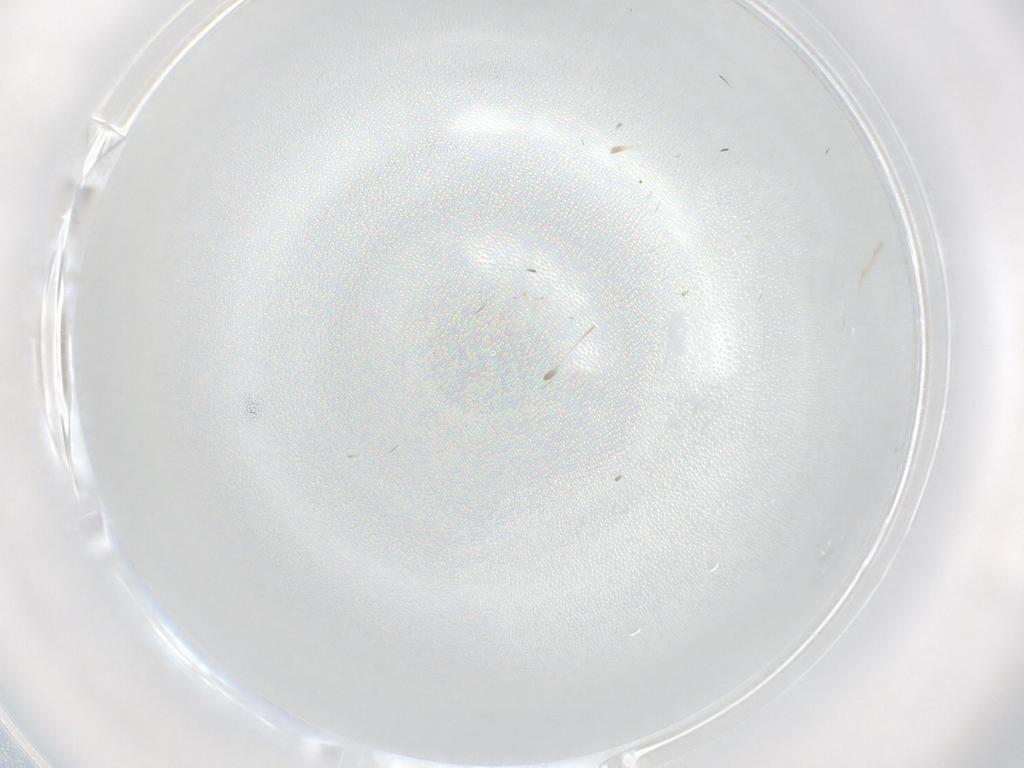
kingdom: Animalia
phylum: Arthropoda
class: Insecta
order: Diptera
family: Cecidomyiidae
